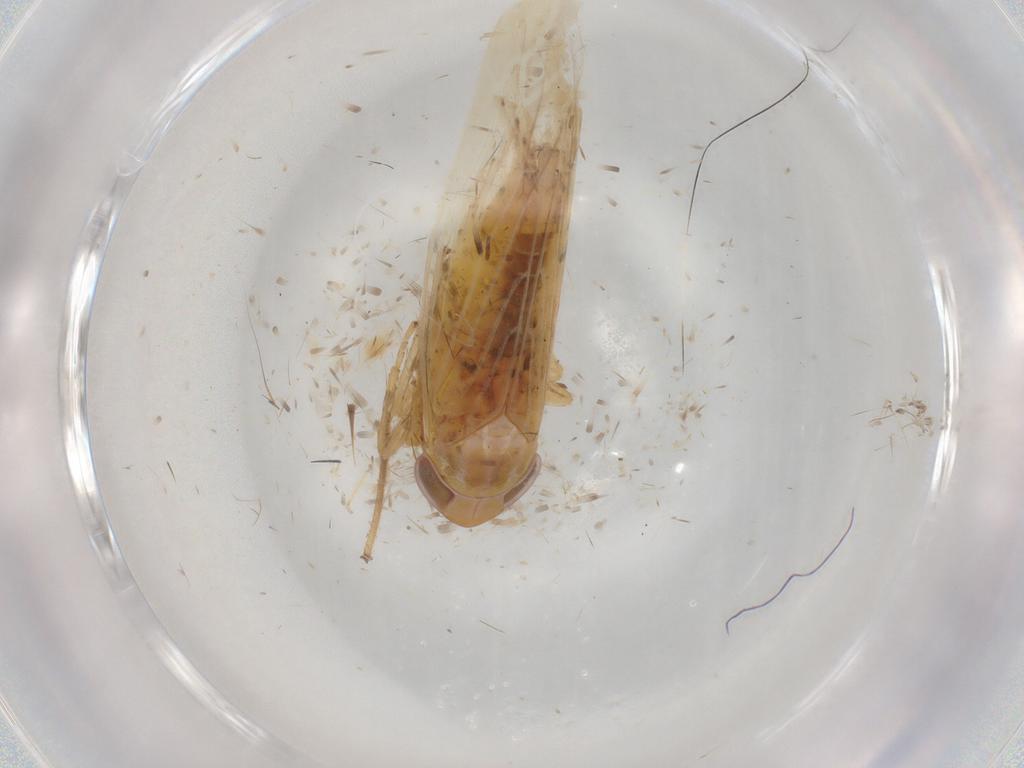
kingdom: Animalia
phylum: Arthropoda
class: Insecta
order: Hemiptera
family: Cicadellidae
